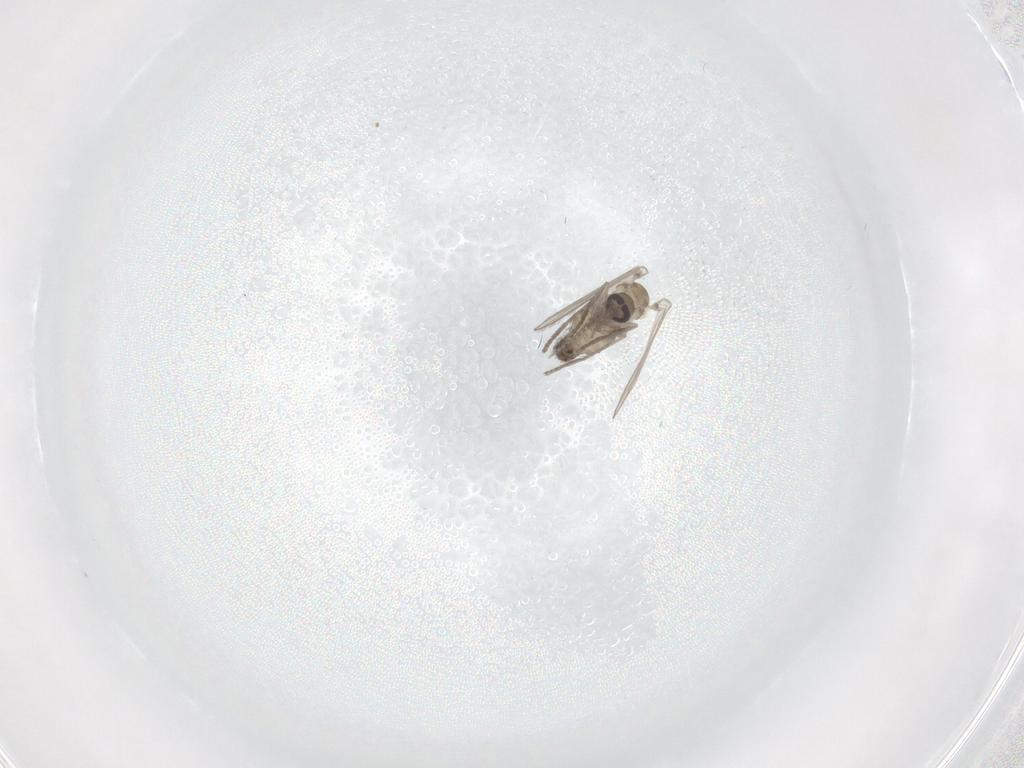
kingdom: Animalia
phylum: Arthropoda
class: Insecta
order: Diptera
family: Psychodidae
